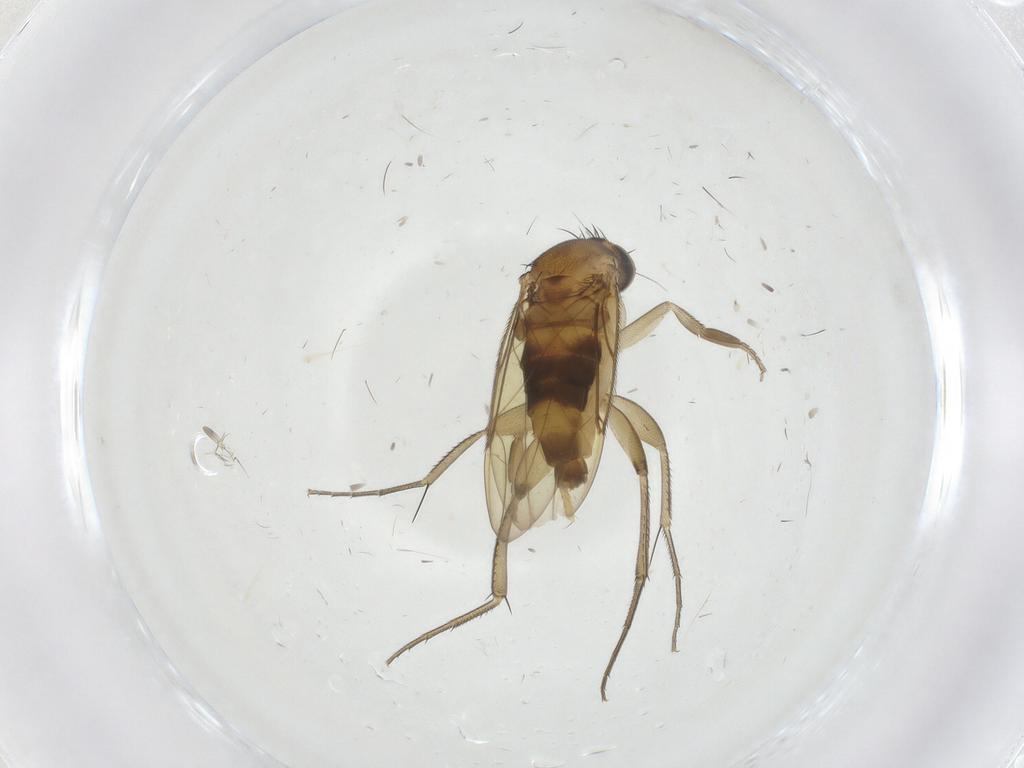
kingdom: Animalia
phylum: Arthropoda
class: Insecta
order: Diptera
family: Phoridae
